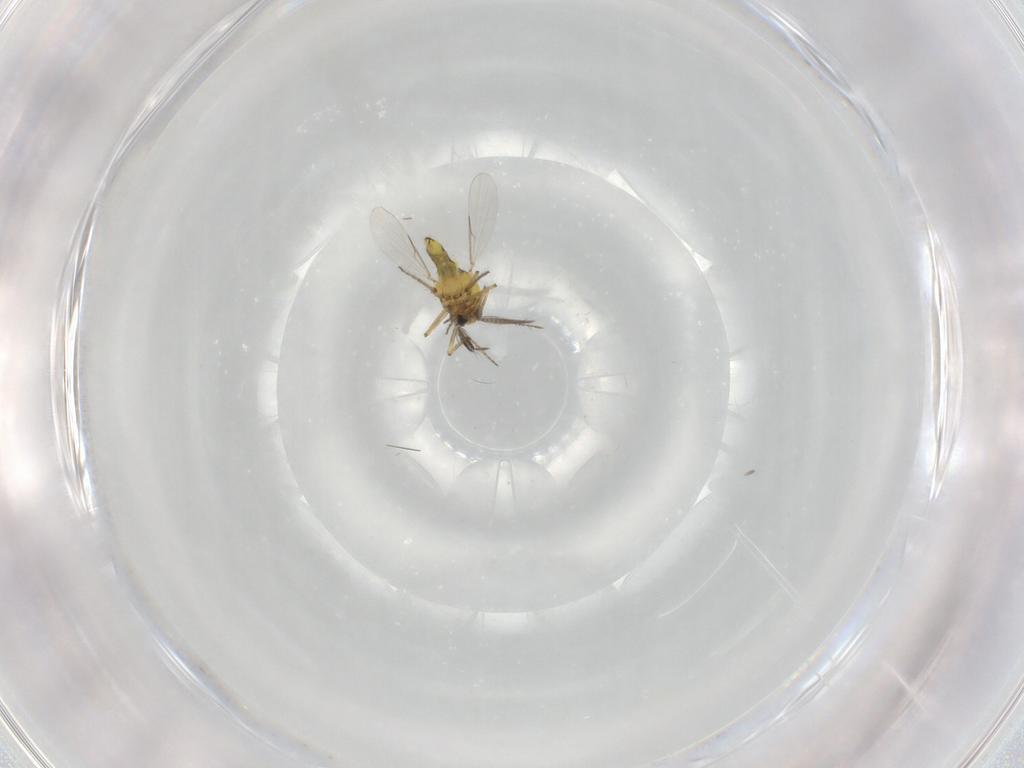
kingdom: Animalia
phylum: Arthropoda
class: Insecta
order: Diptera
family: Ceratopogonidae
